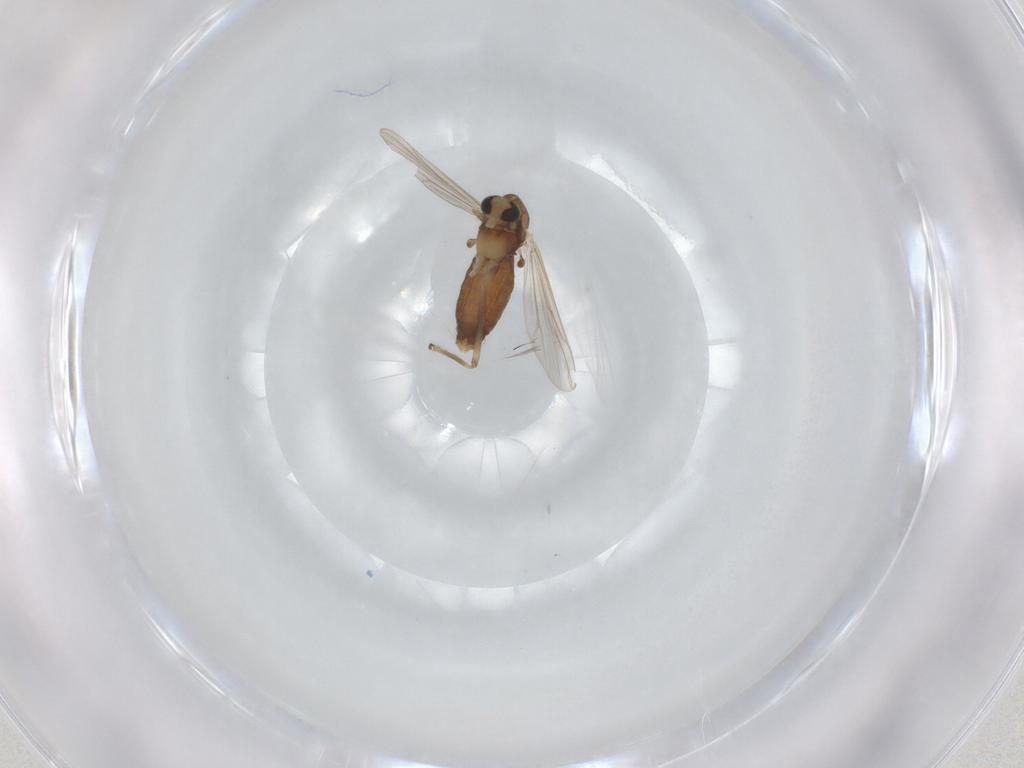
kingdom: Animalia
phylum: Arthropoda
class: Insecta
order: Diptera
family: Chironomidae
